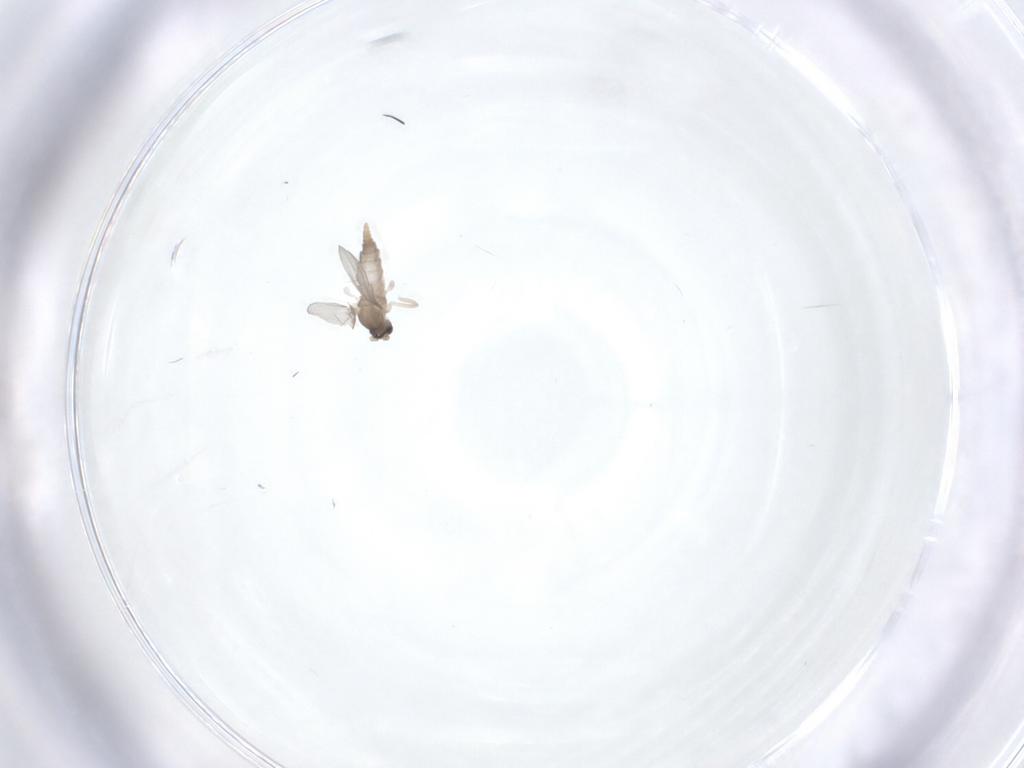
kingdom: Animalia
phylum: Arthropoda
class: Insecta
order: Diptera
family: Cecidomyiidae
